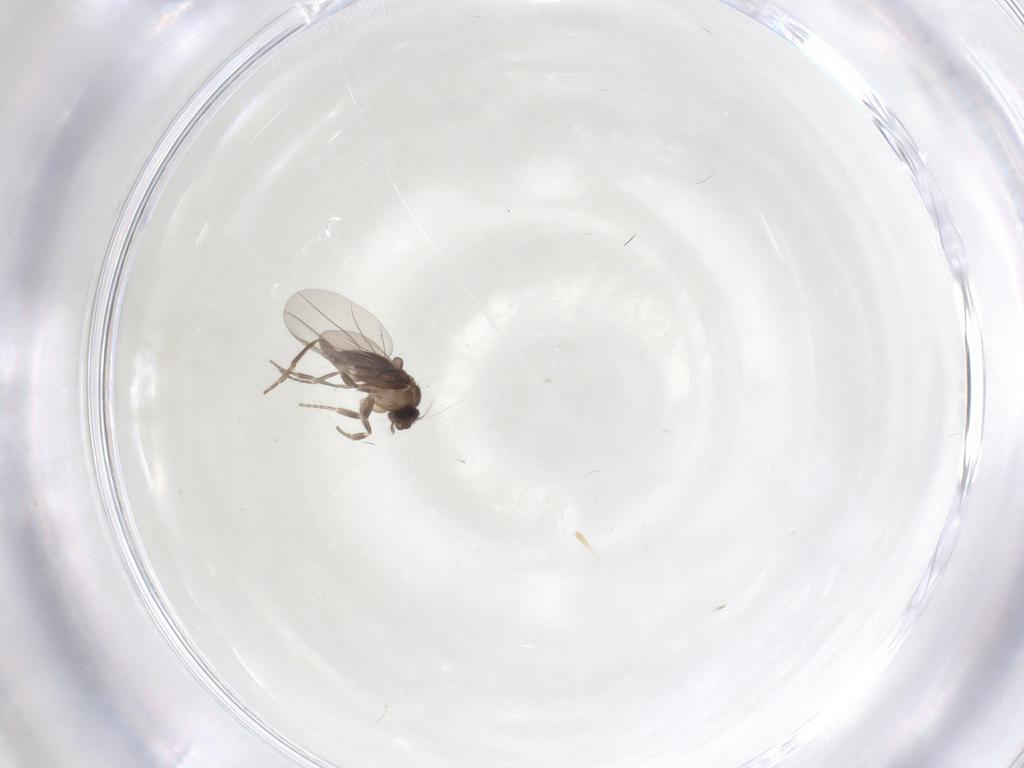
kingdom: Animalia
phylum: Arthropoda
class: Insecta
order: Diptera
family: Phoridae
